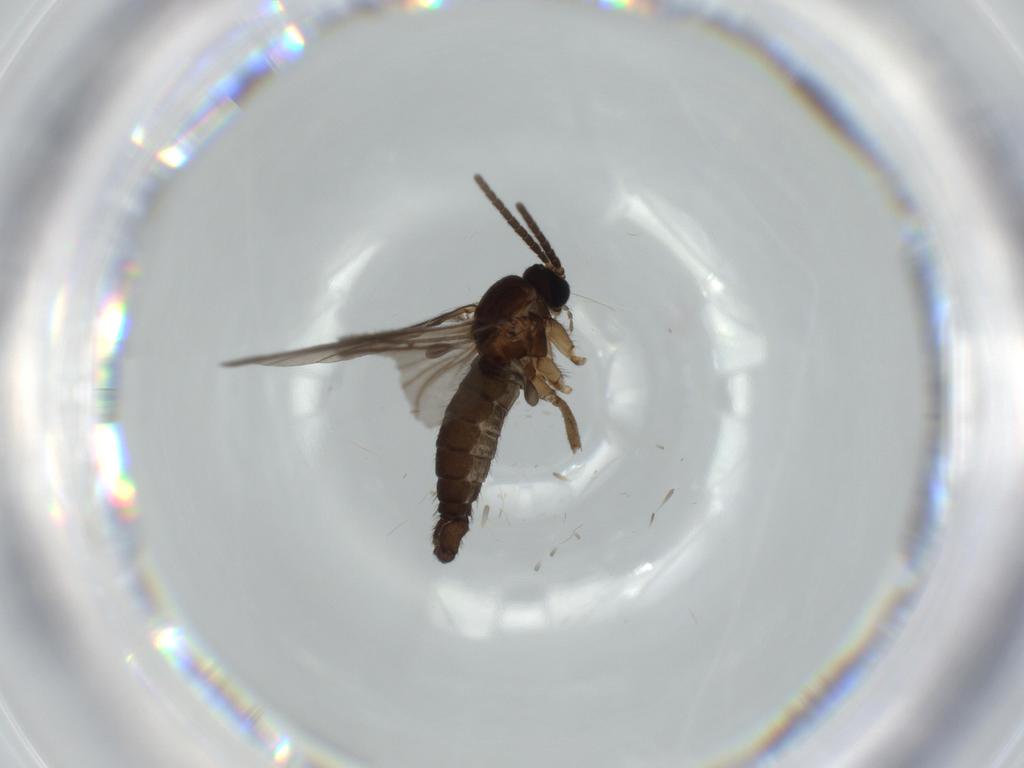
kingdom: Animalia
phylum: Arthropoda
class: Insecta
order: Diptera
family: Sciaridae
